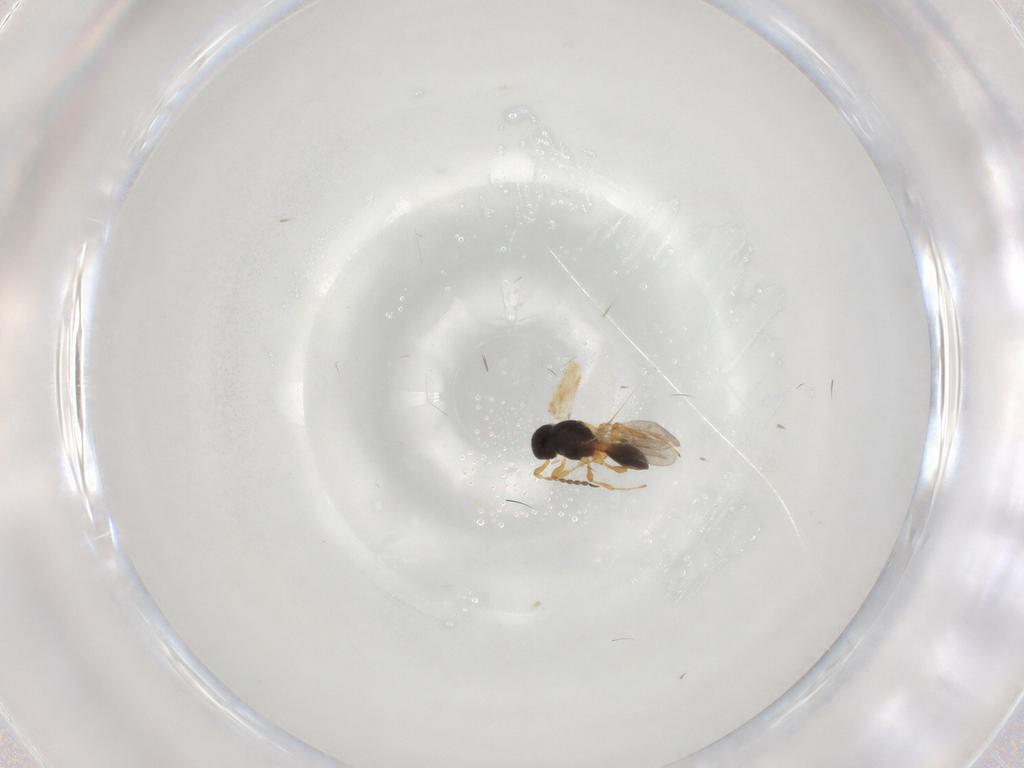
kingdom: Animalia
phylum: Arthropoda
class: Insecta
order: Hymenoptera
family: Platygastridae
